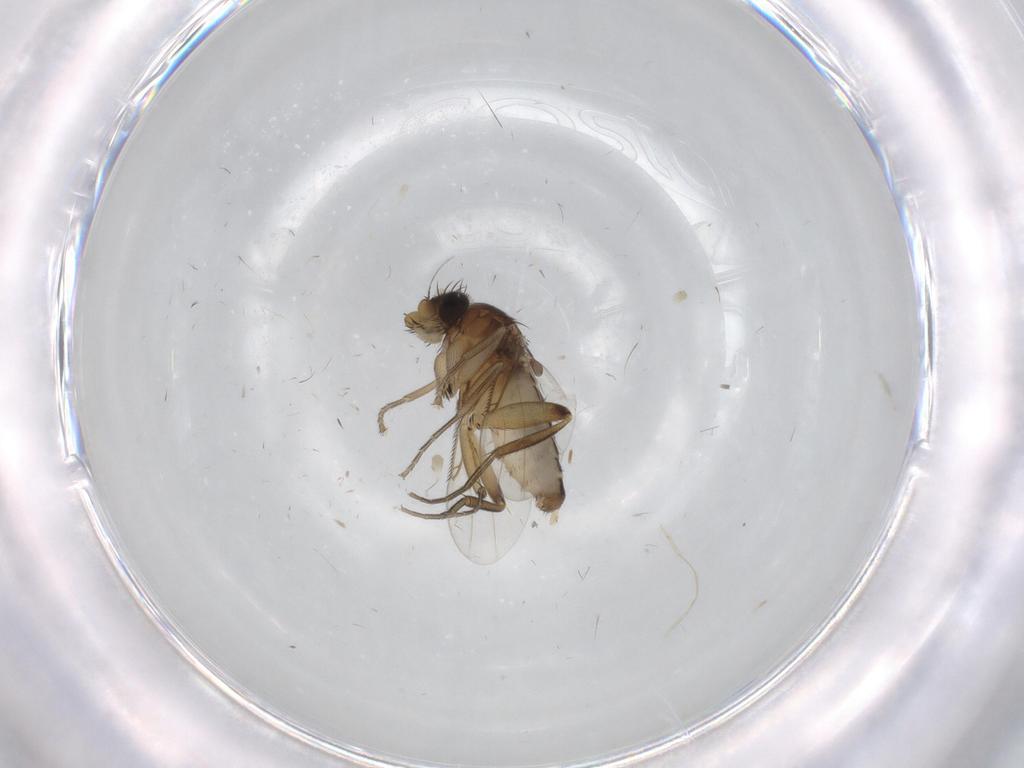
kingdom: Animalia
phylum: Arthropoda
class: Insecta
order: Diptera
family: Phoridae
